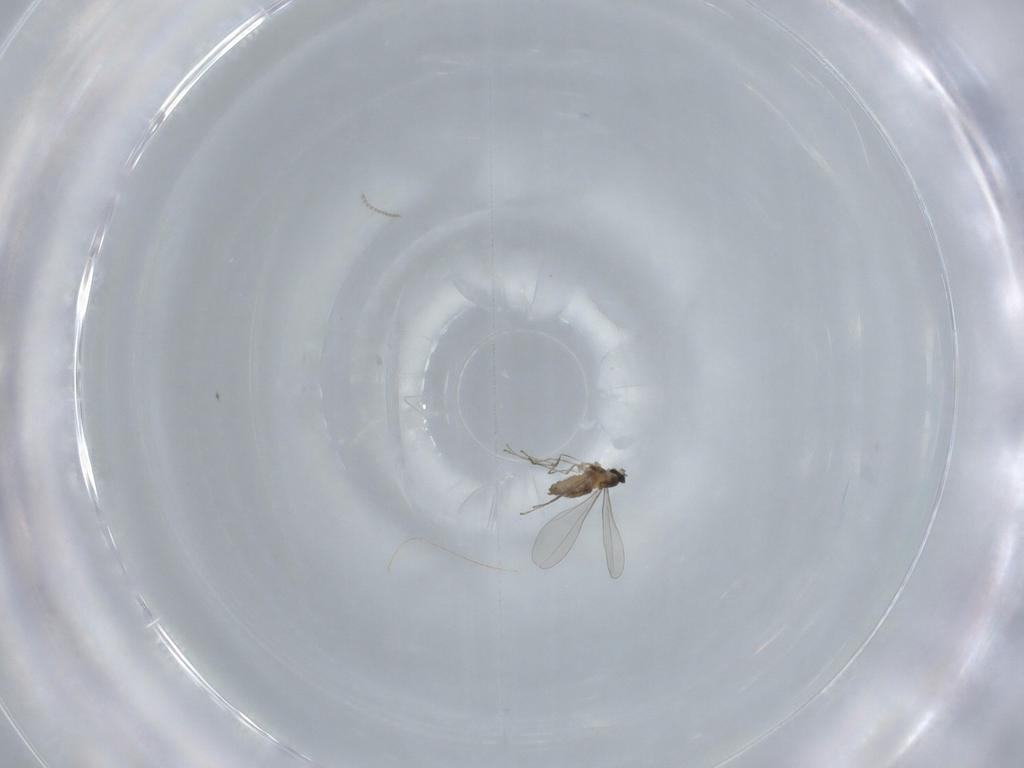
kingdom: Animalia
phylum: Arthropoda
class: Insecta
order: Diptera
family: Cecidomyiidae
